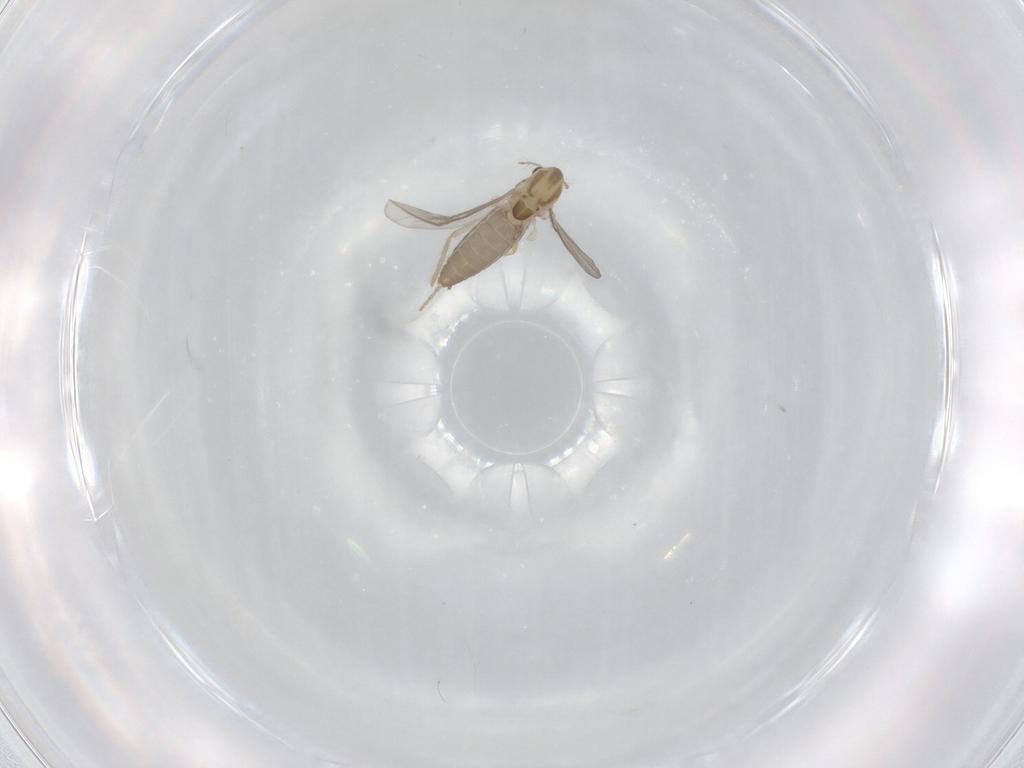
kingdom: Animalia
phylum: Arthropoda
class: Insecta
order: Diptera
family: Chironomidae
